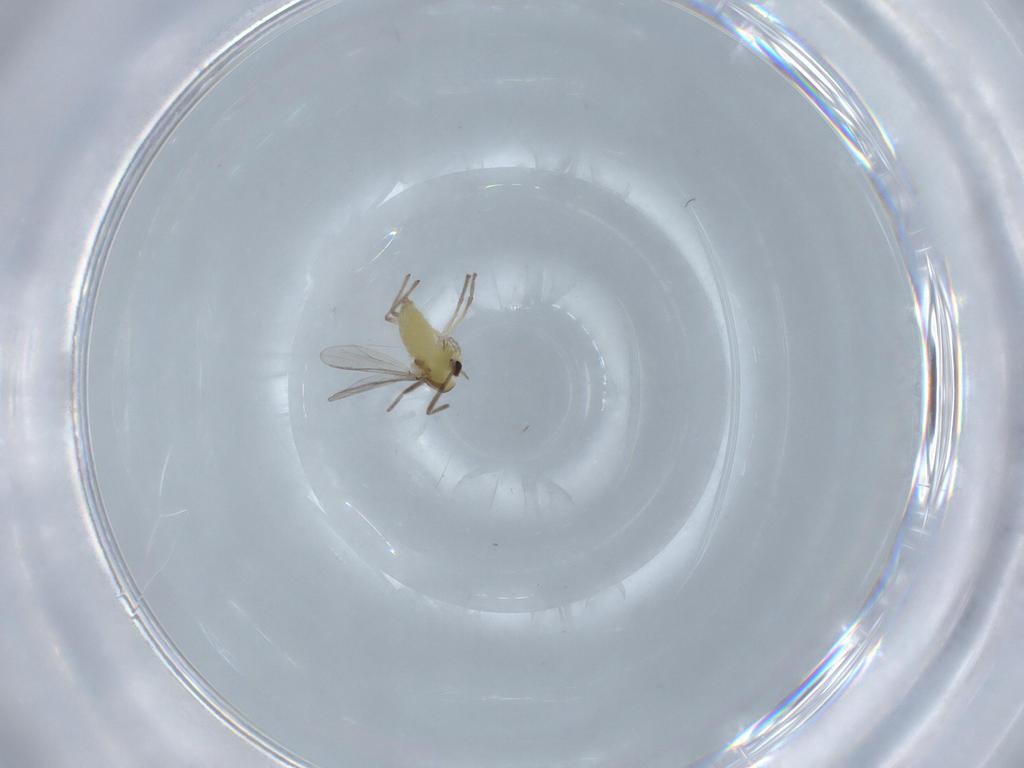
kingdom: Animalia
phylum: Arthropoda
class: Insecta
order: Diptera
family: Chironomidae
